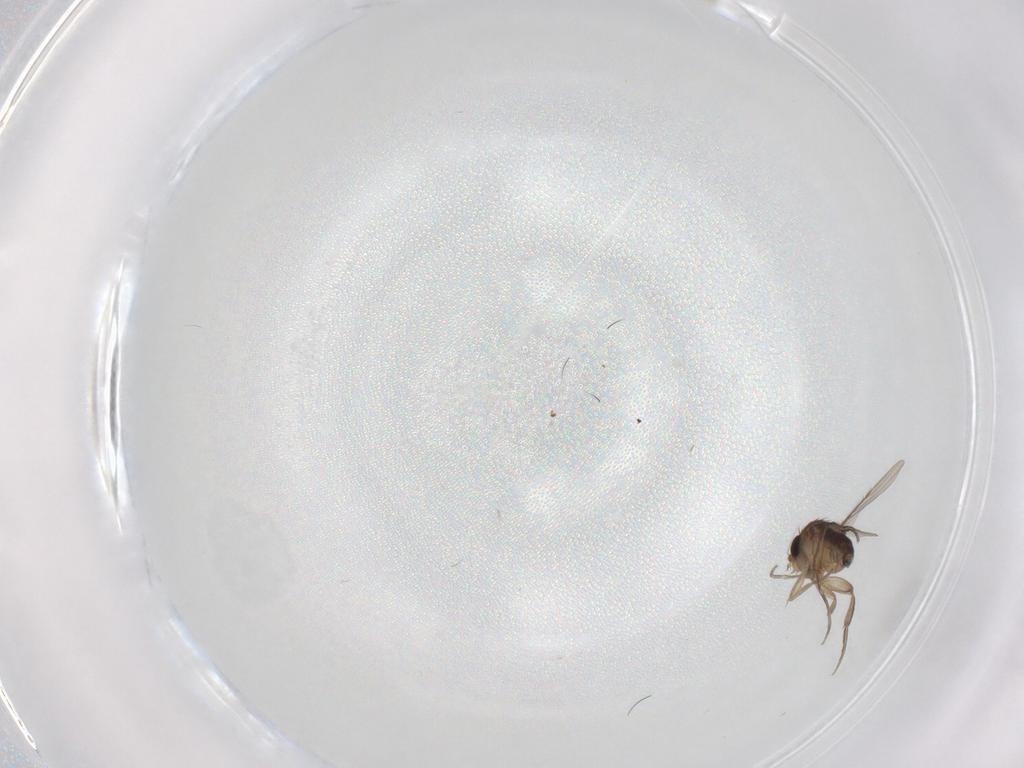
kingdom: Animalia
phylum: Arthropoda
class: Insecta
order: Diptera
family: Phoridae
